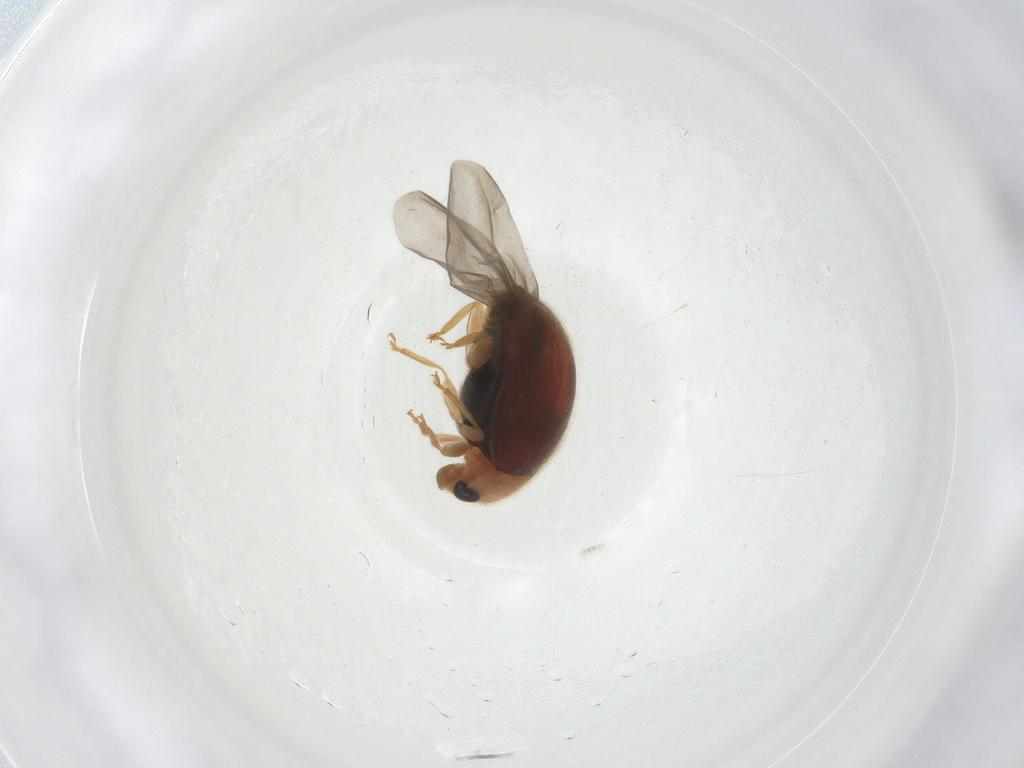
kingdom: Animalia
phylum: Arthropoda
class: Insecta
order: Coleoptera
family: Coccinellidae
